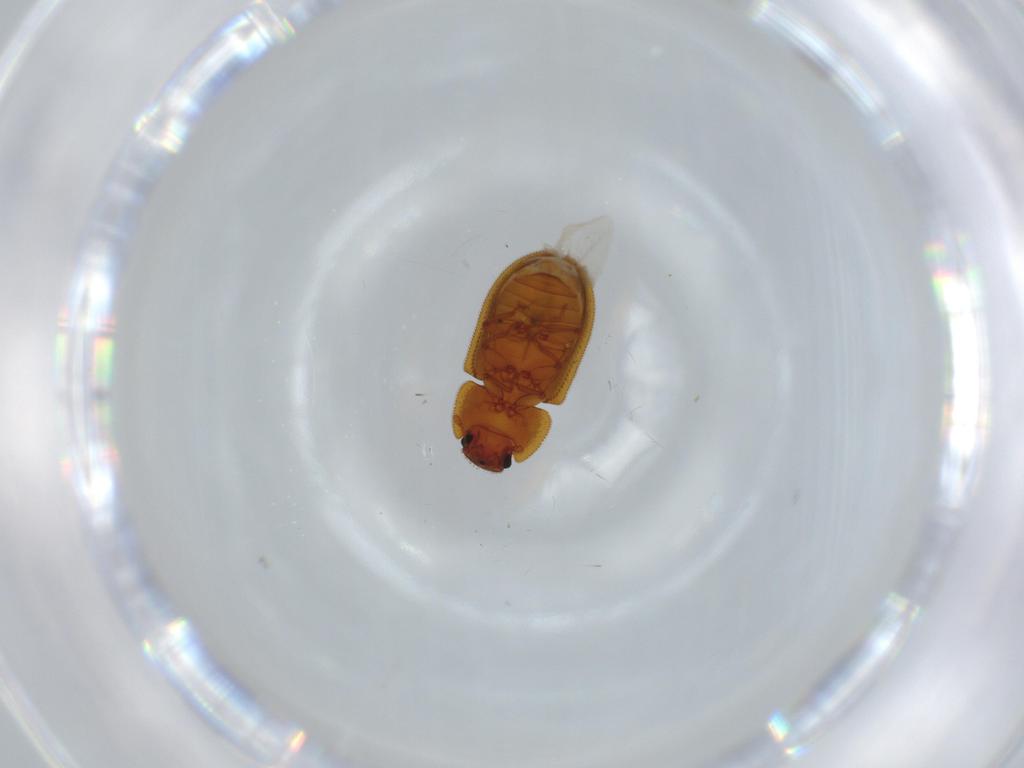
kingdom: Animalia
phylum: Arthropoda
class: Insecta
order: Coleoptera
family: Zopheridae
